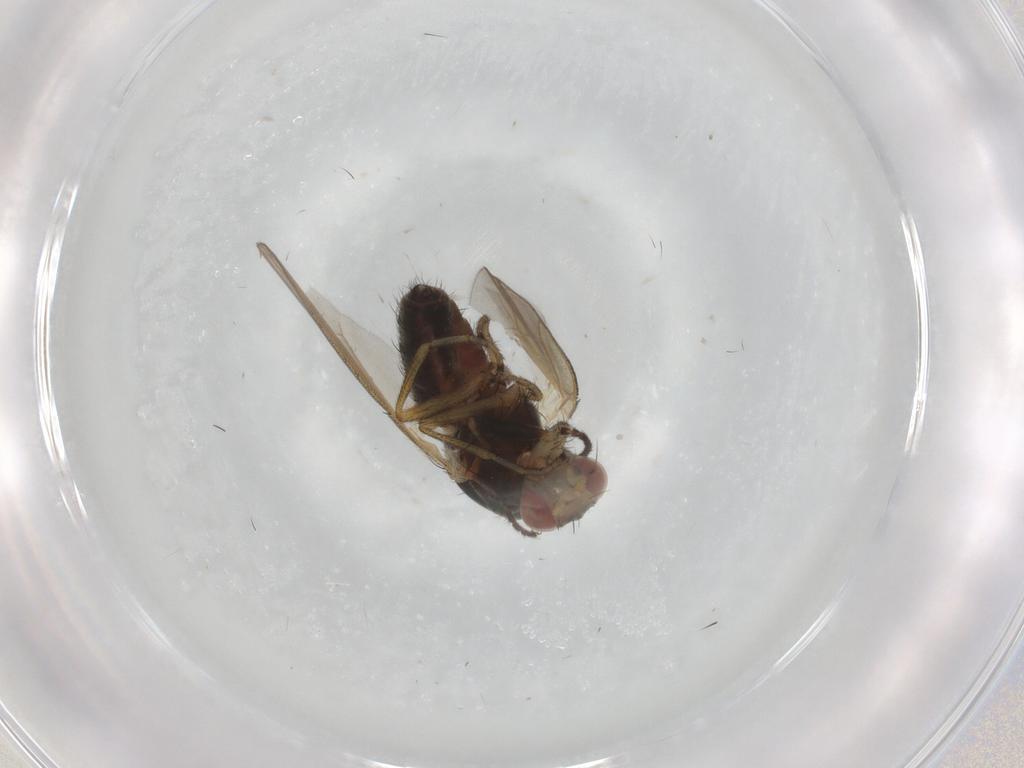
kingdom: Animalia
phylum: Arthropoda
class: Insecta
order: Diptera
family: Ulidiidae
